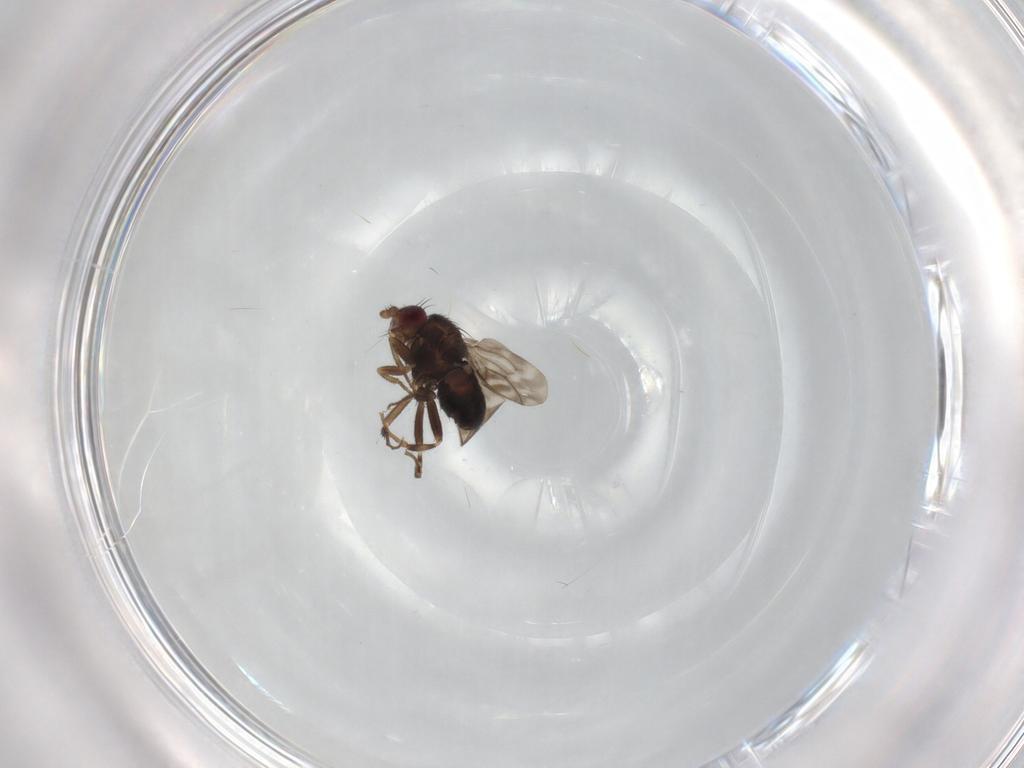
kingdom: Animalia
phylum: Arthropoda
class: Insecta
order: Diptera
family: Sphaeroceridae
